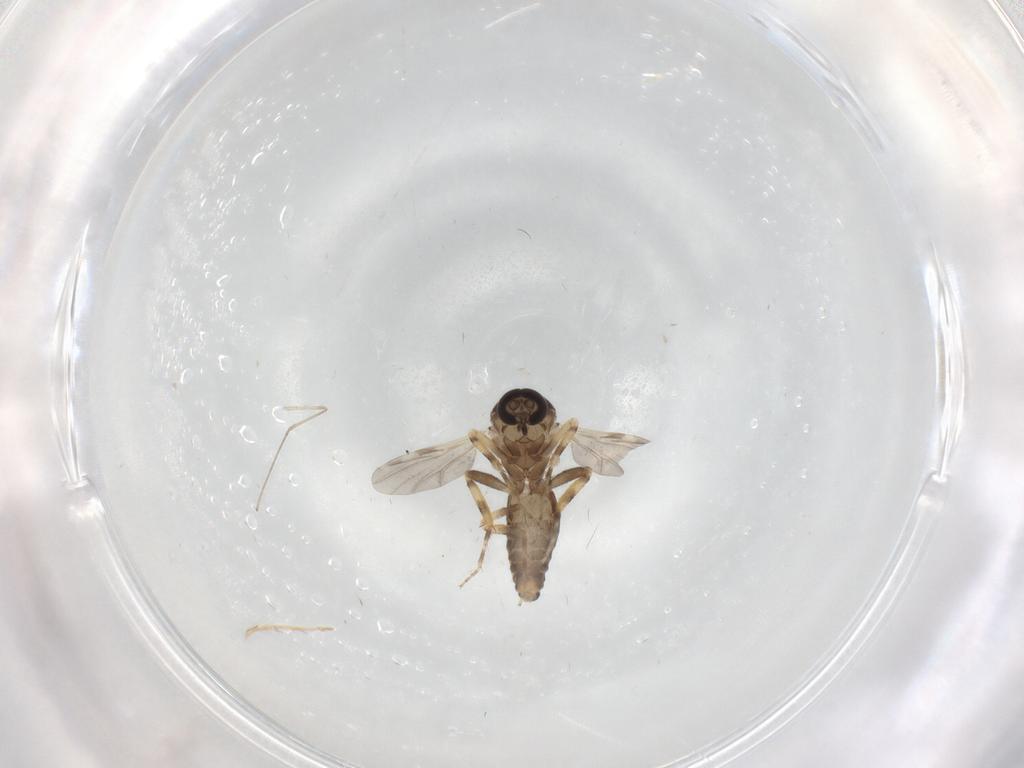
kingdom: Animalia
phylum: Arthropoda
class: Insecta
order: Diptera
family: Ceratopogonidae
